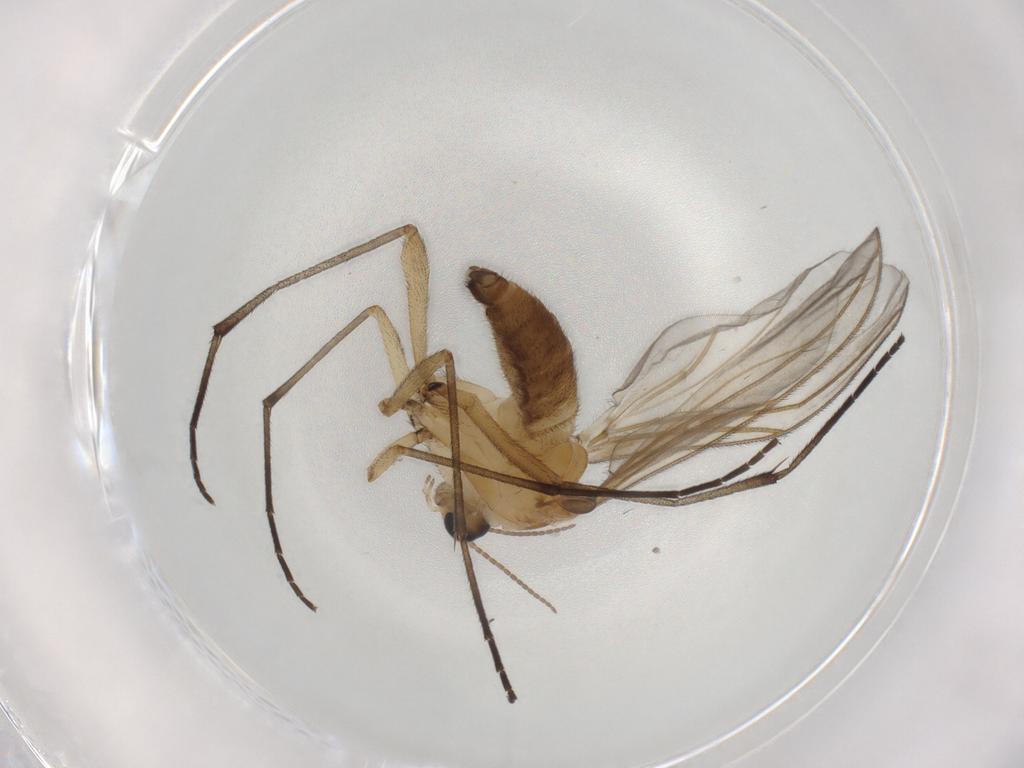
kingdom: Animalia
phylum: Arthropoda
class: Insecta
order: Diptera
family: Sciaridae
